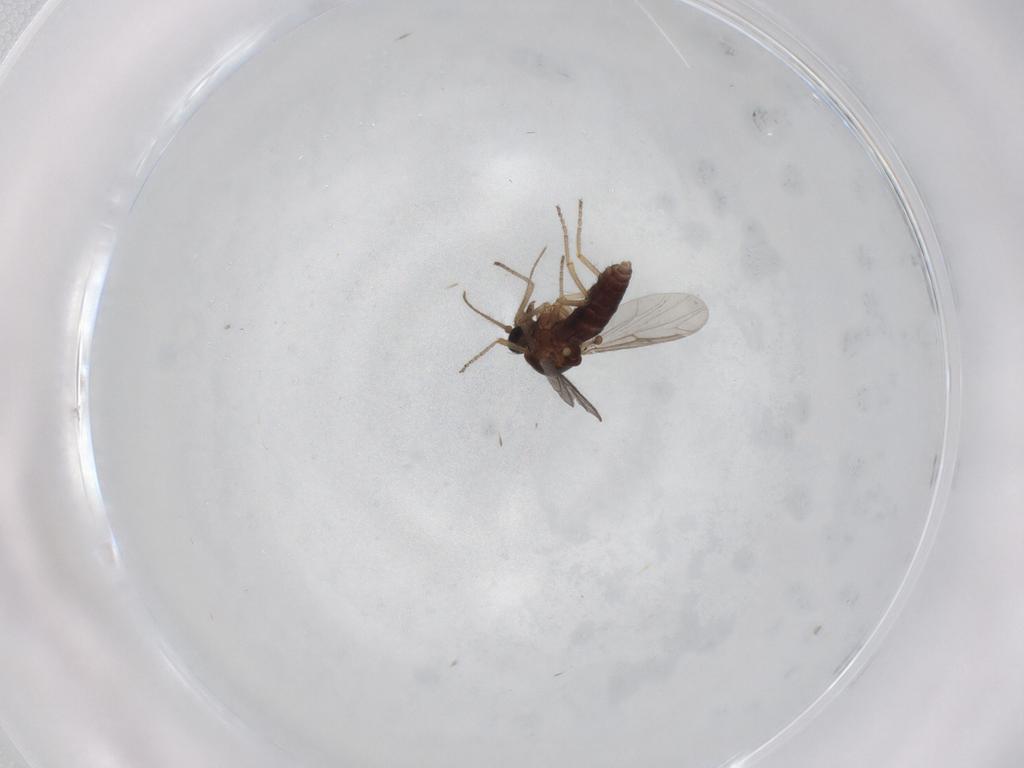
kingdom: Animalia
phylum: Arthropoda
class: Insecta
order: Diptera
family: Ceratopogonidae
